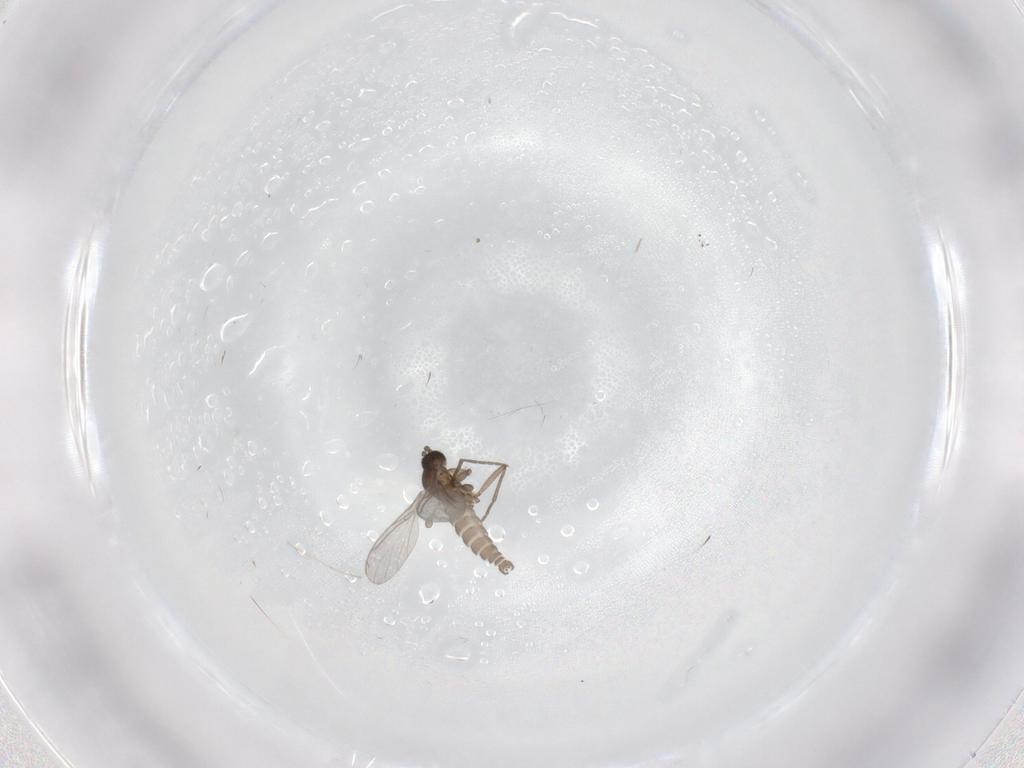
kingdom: Animalia
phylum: Arthropoda
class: Insecta
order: Diptera
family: Sciaridae
